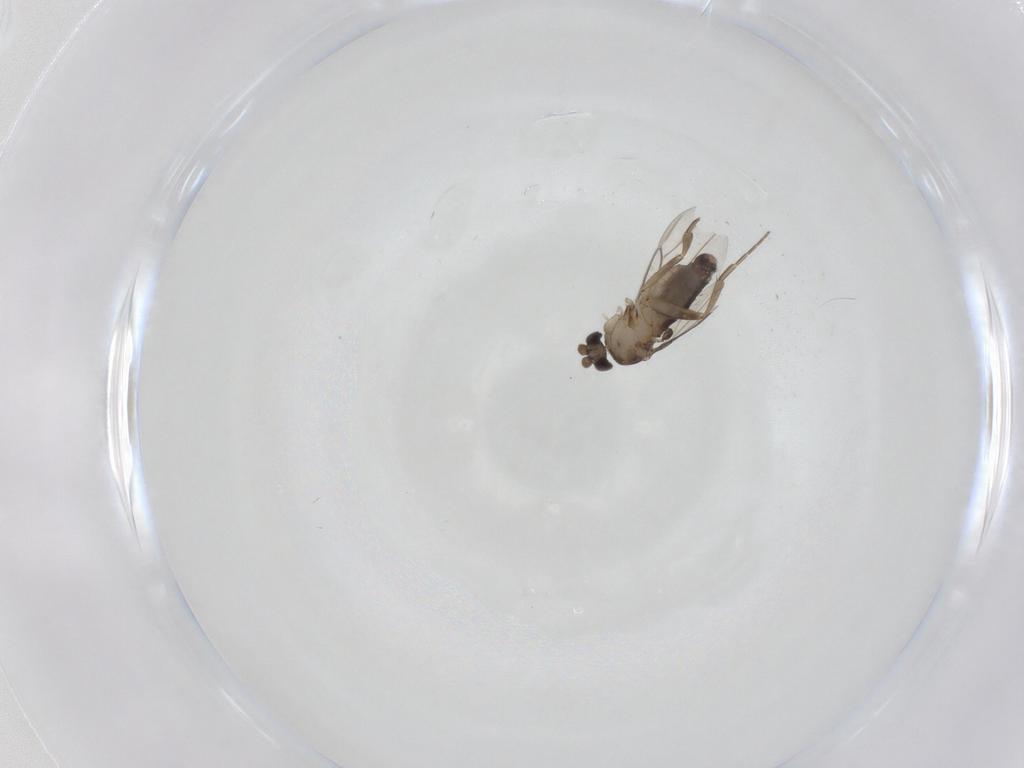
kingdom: Animalia
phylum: Arthropoda
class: Insecta
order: Diptera
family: Phoridae
